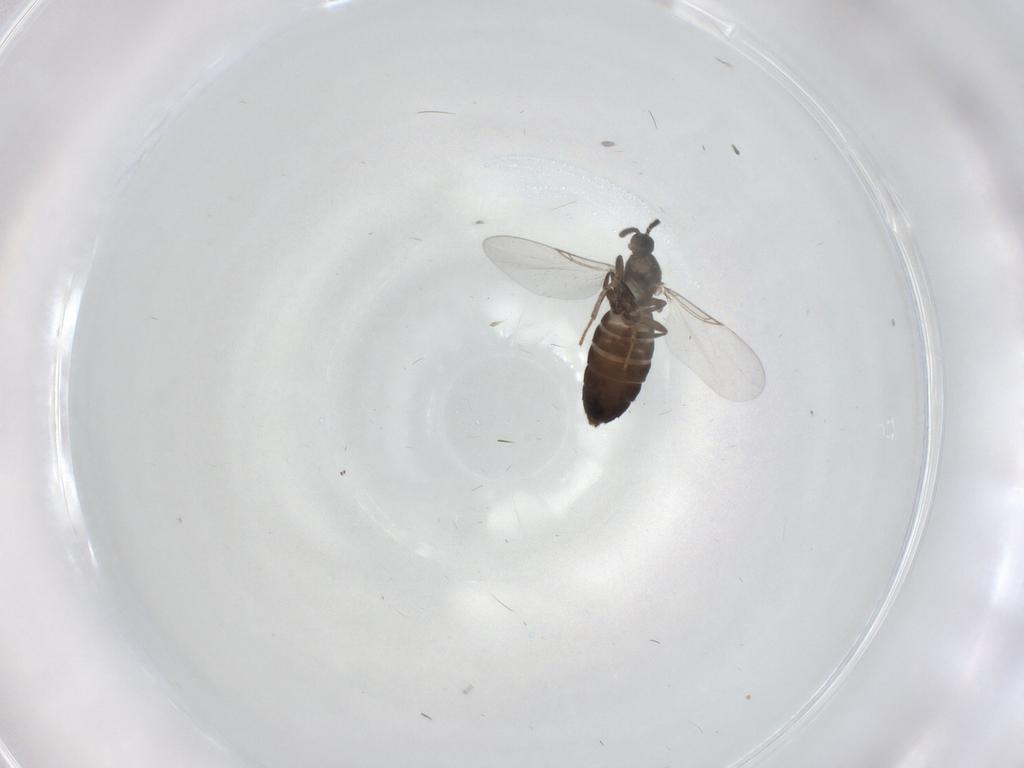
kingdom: Animalia
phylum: Arthropoda
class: Insecta
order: Diptera
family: Scatopsidae
